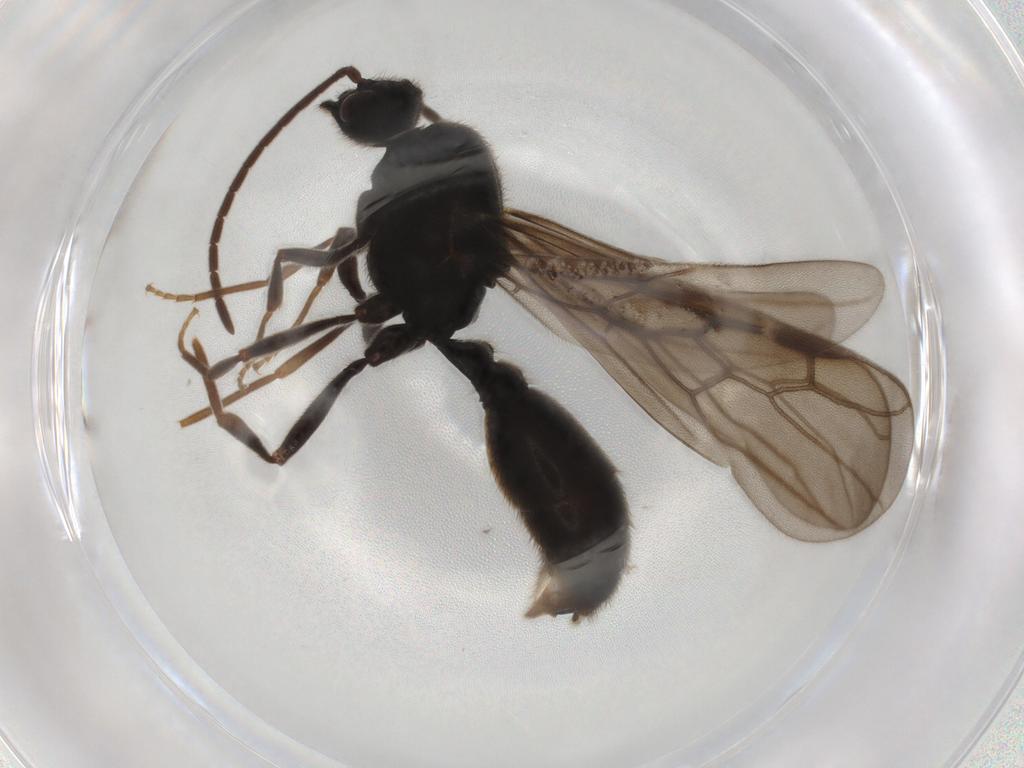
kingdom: Animalia
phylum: Arthropoda
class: Insecta
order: Hymenoptera
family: Formicidae
